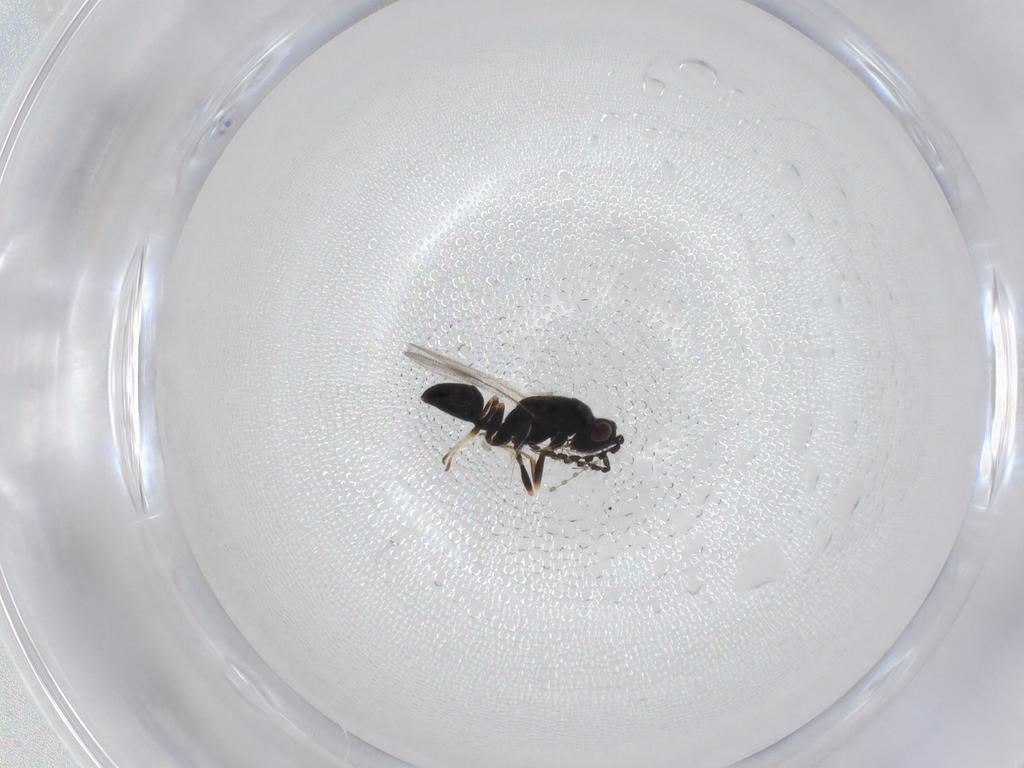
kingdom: Animalia
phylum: Arthropoda
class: Insecta
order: Hymenoptera
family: Eurytomidae
